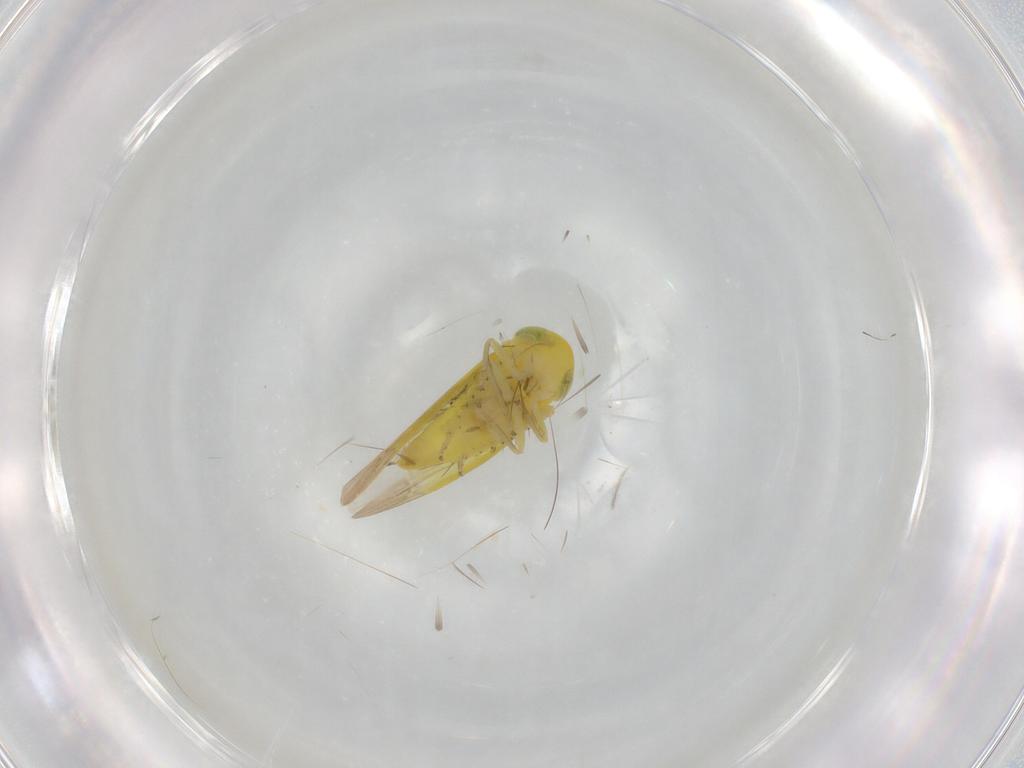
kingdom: Animalia
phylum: Arthropoda
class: Insecta
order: Hemiptera
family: Cicadellidae
